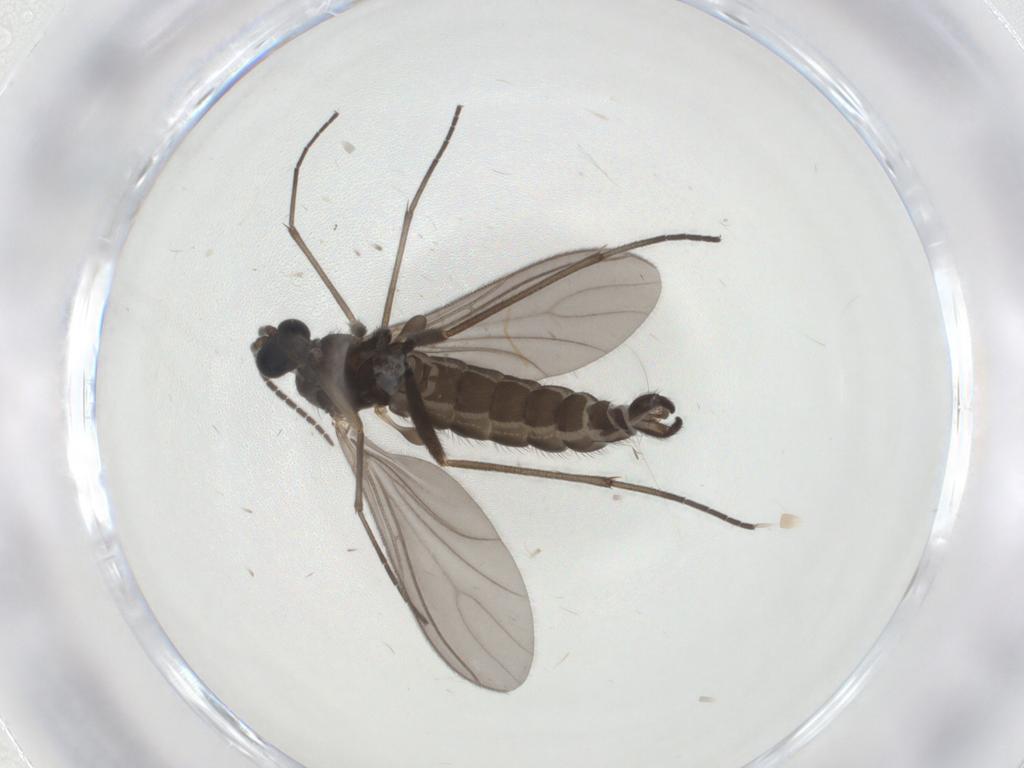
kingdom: Animalia
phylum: Arthropoda
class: Insecta
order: Diptera
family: Sciaridae
